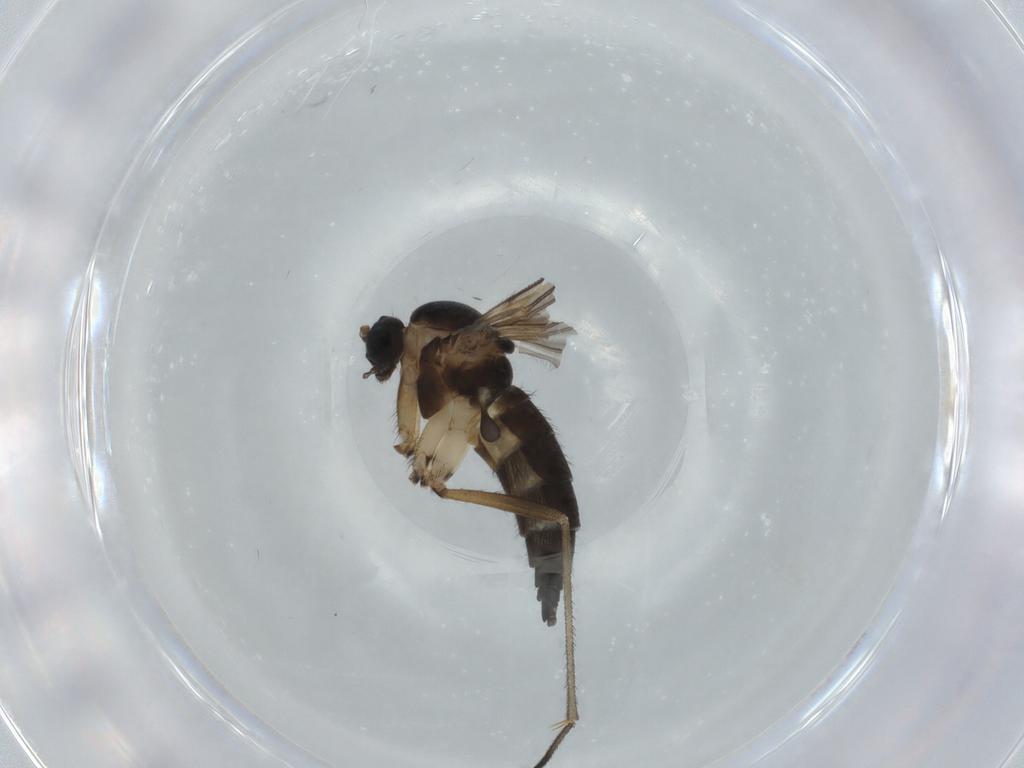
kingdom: Animalia
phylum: Arthropoda
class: Insecta
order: Diptera
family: Sciaridae
